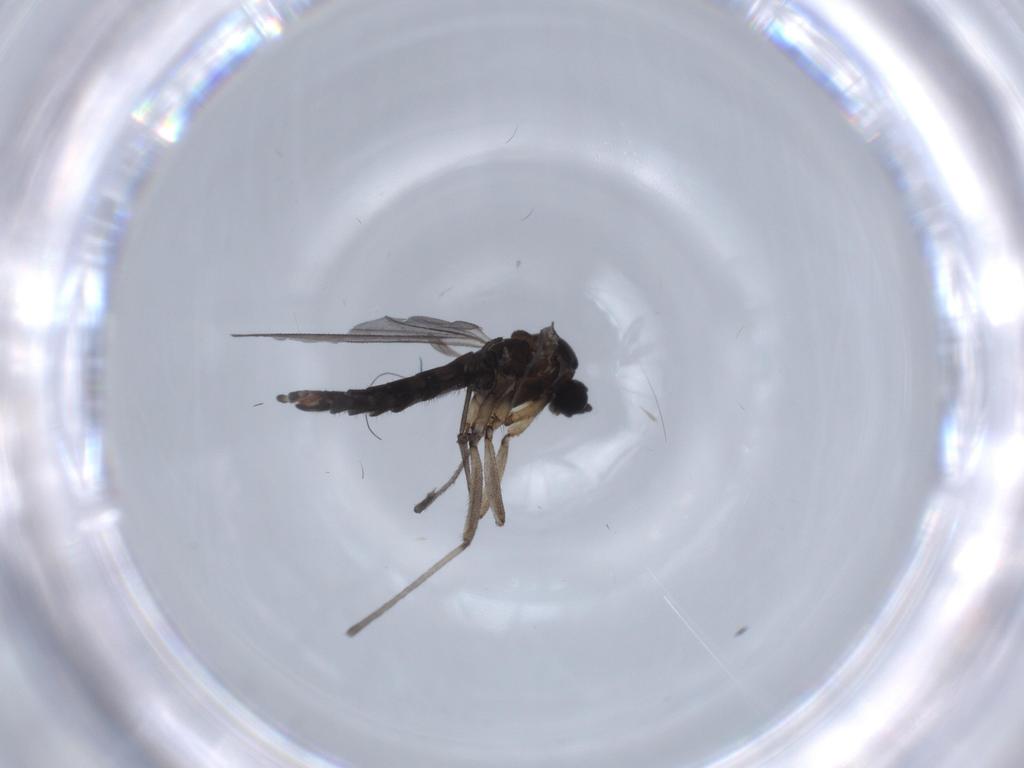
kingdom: Animalia
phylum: Arthropoda
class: Insecta
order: Diptera
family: Sciaridae
